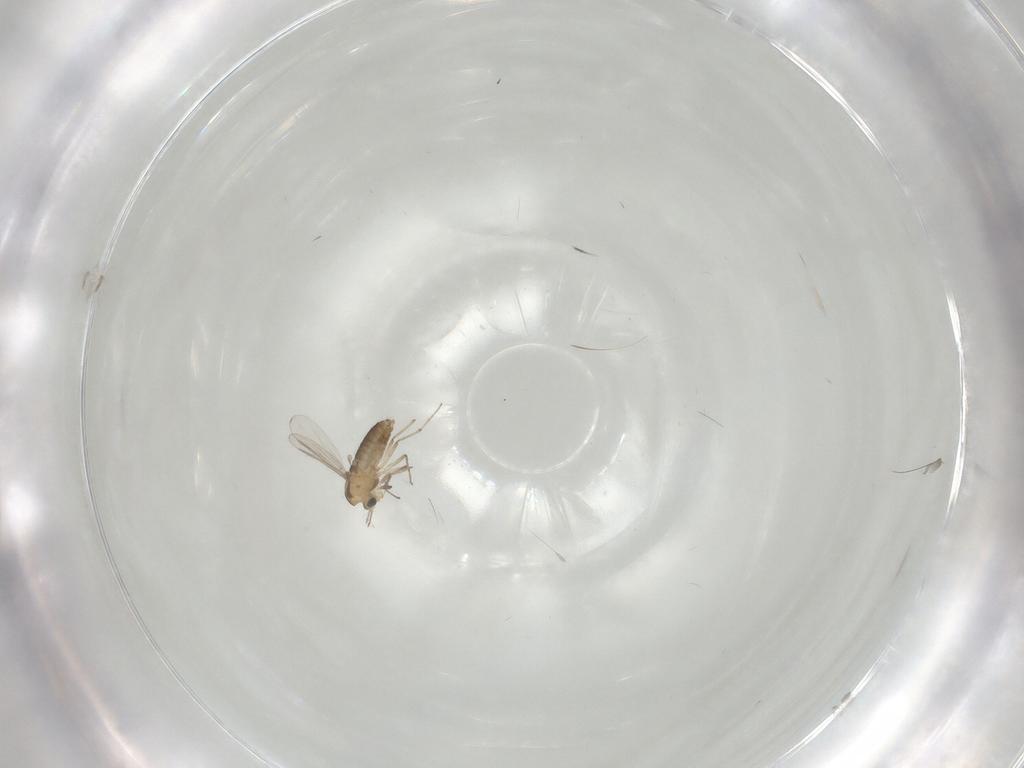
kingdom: Animalia
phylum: Arthropoda
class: Insecta
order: Diptera
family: Chironomidae
